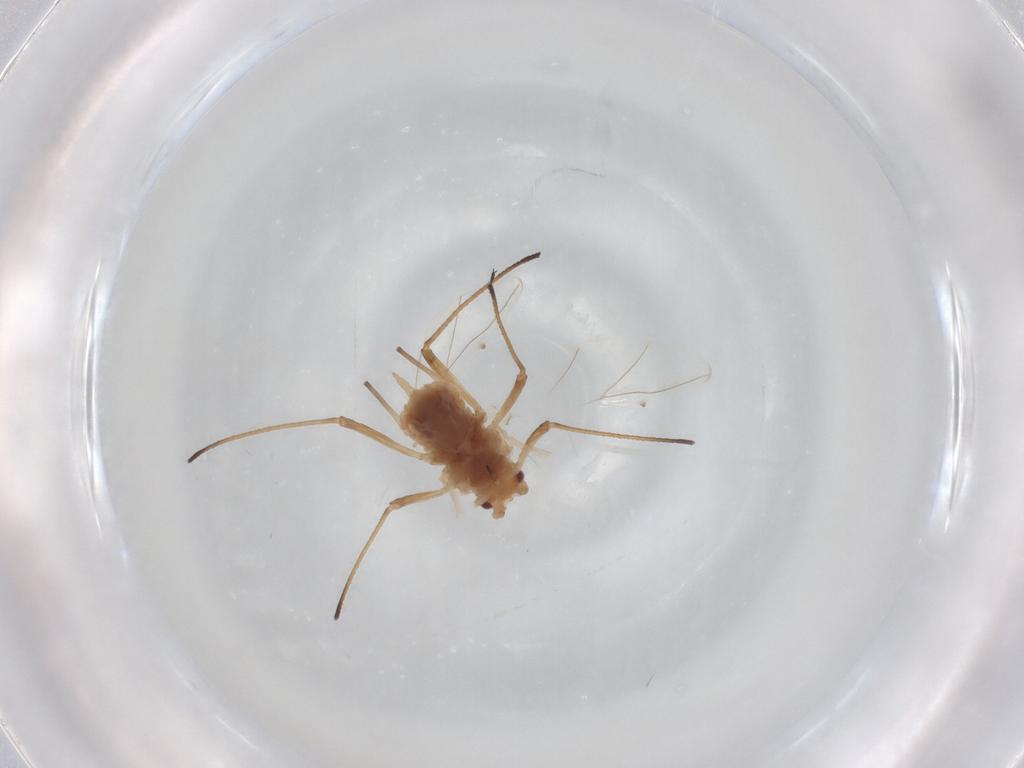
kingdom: Animalia
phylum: Arthropoda
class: Insecta
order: Hemiptera
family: Aphididae
